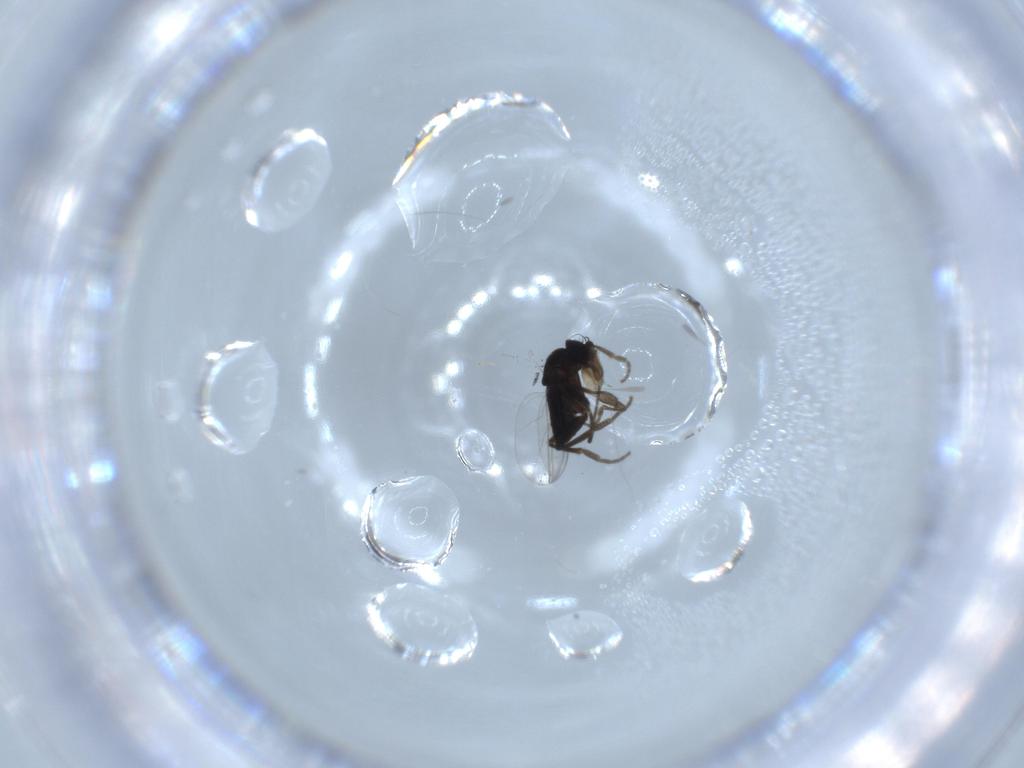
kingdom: Animalia
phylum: Arthropoda
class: Insecta
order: Diptera
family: Phoridae
